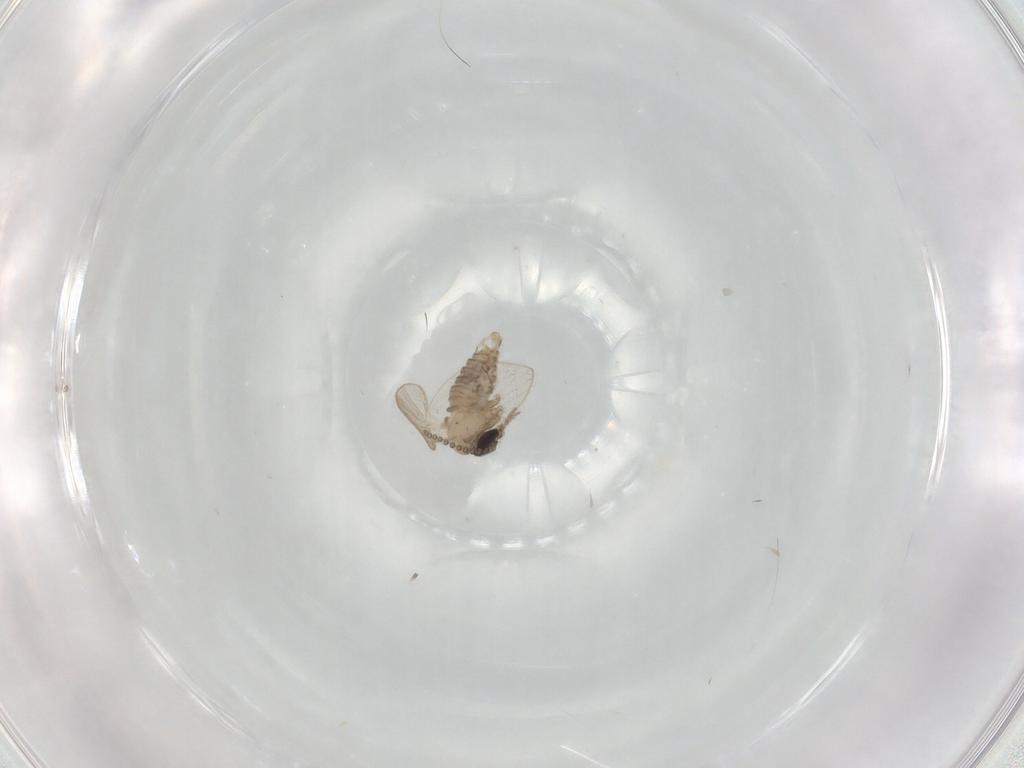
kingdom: Animalia
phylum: Arthropoda
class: Insecta
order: Diptera
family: Psychodidae
